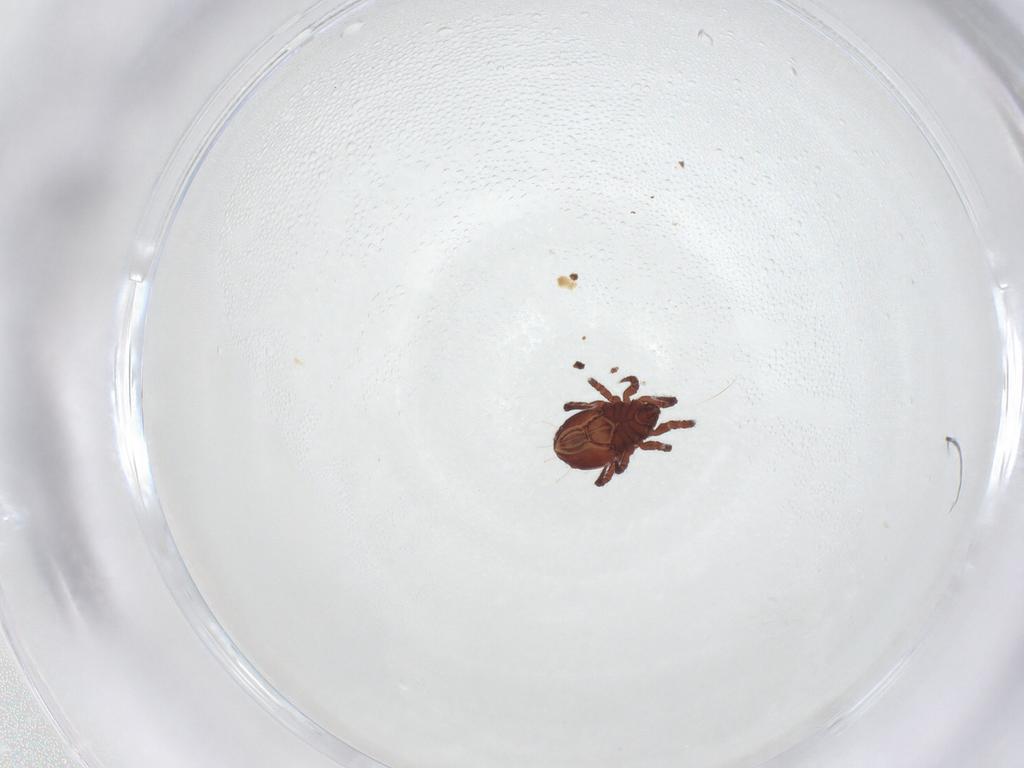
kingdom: Animalia
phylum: Arthropoda
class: Arachnida
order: Sarcoptiformes
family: Nothridae
